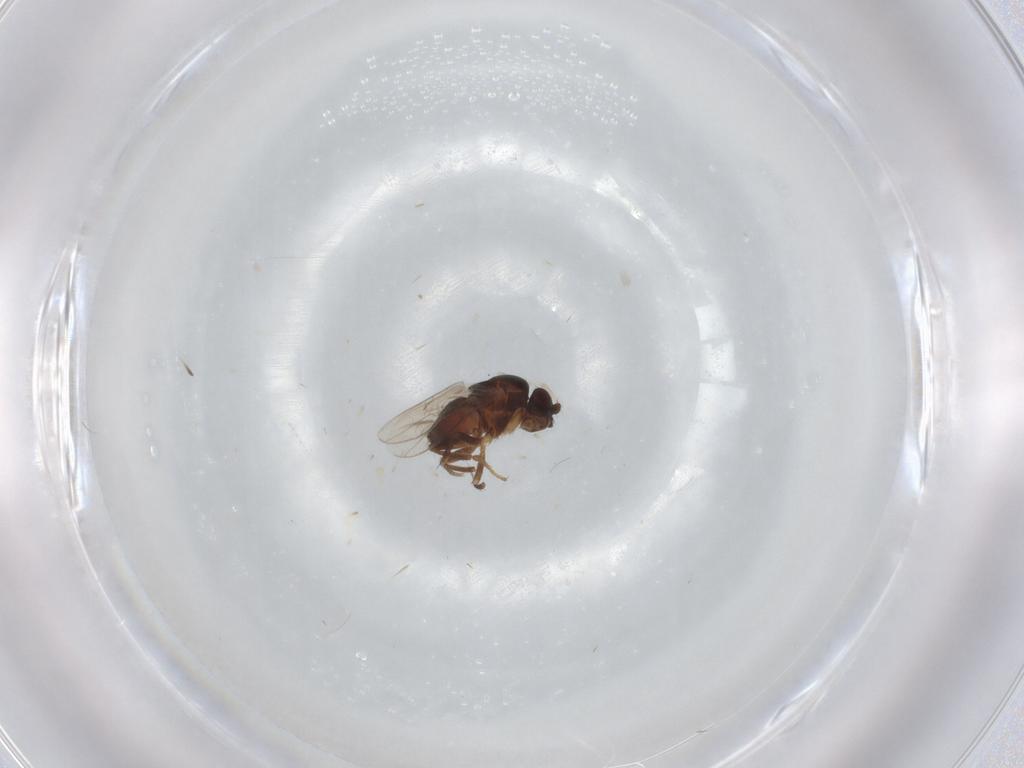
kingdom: Animalia
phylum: Arthropoda
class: Insecta
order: Diptera
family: Sphaeroceridae
